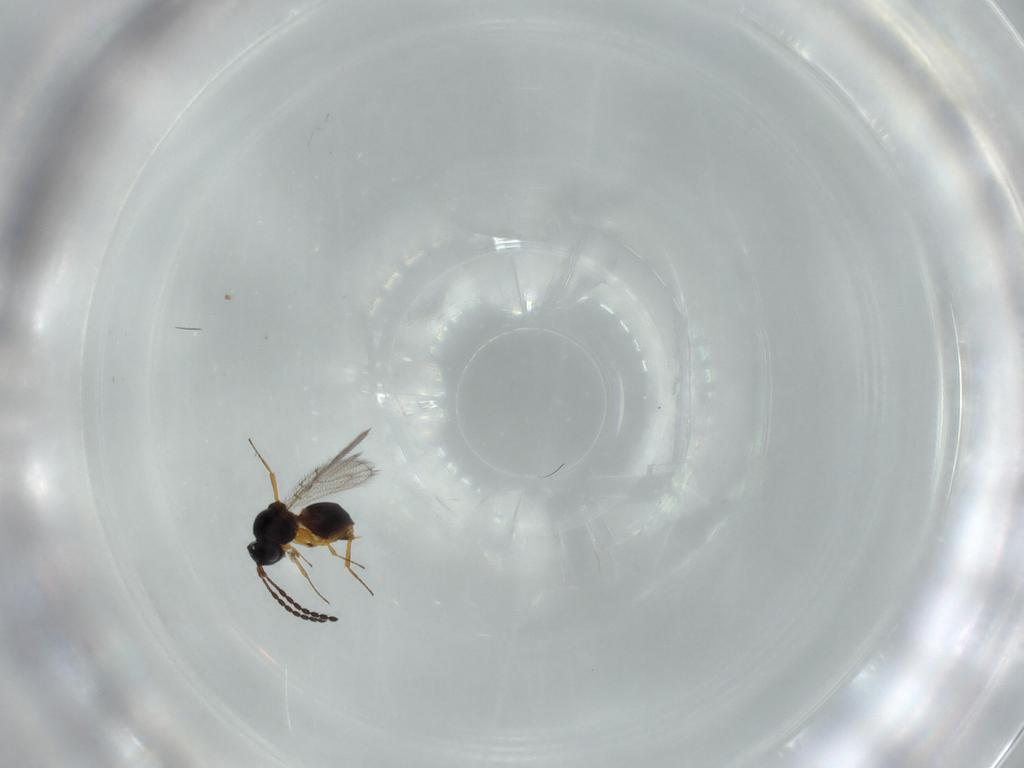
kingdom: Animalia
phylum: Arthropoda
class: Insecta
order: Hymenoptera
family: Figitidae
